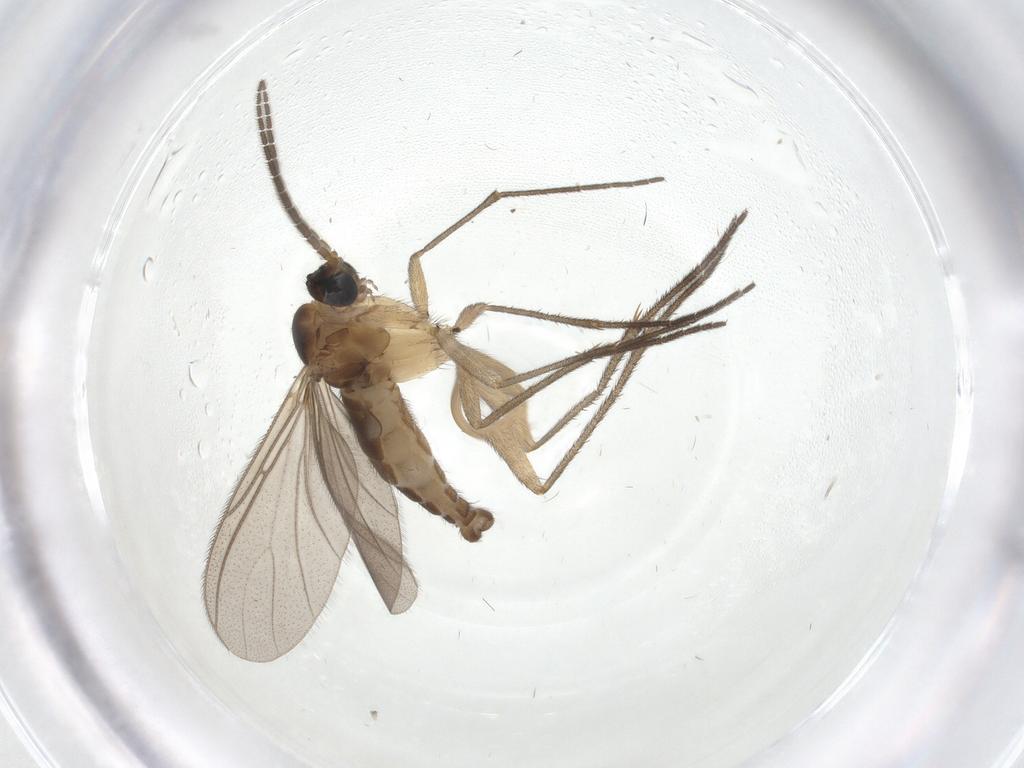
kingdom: Animalia
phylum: Arthropoda
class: Insecta
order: Diptera
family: Sciaridae
